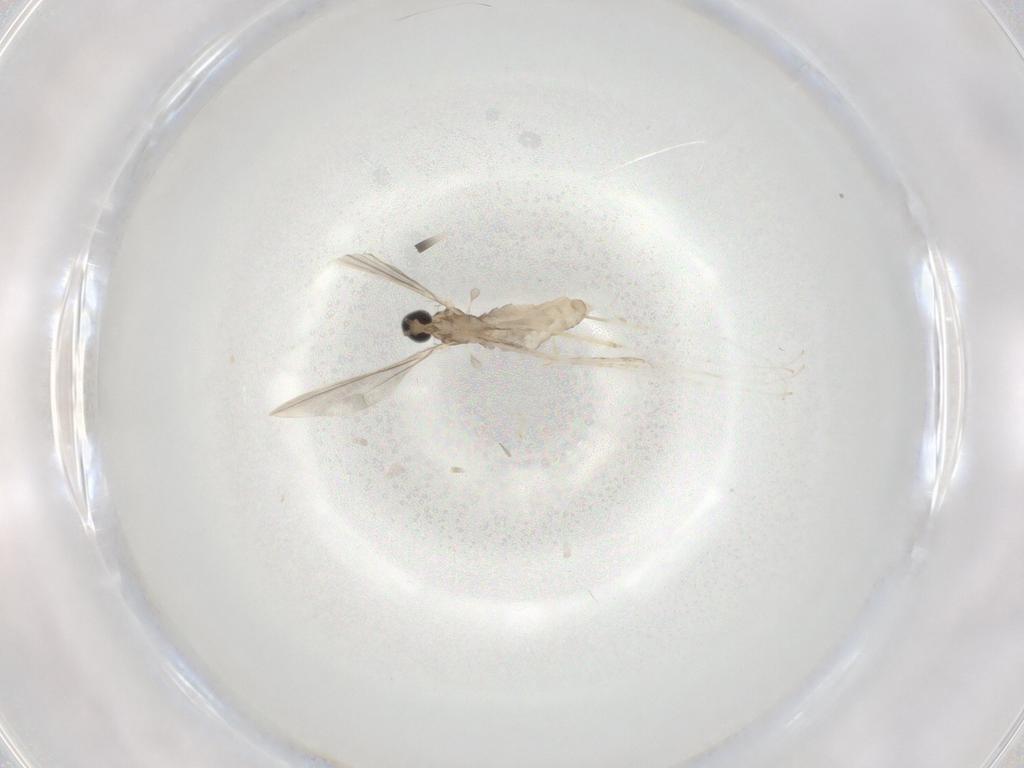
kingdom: Animalia
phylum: Arthropoda
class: Insecta
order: Diptera
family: Cecidomyiidae
